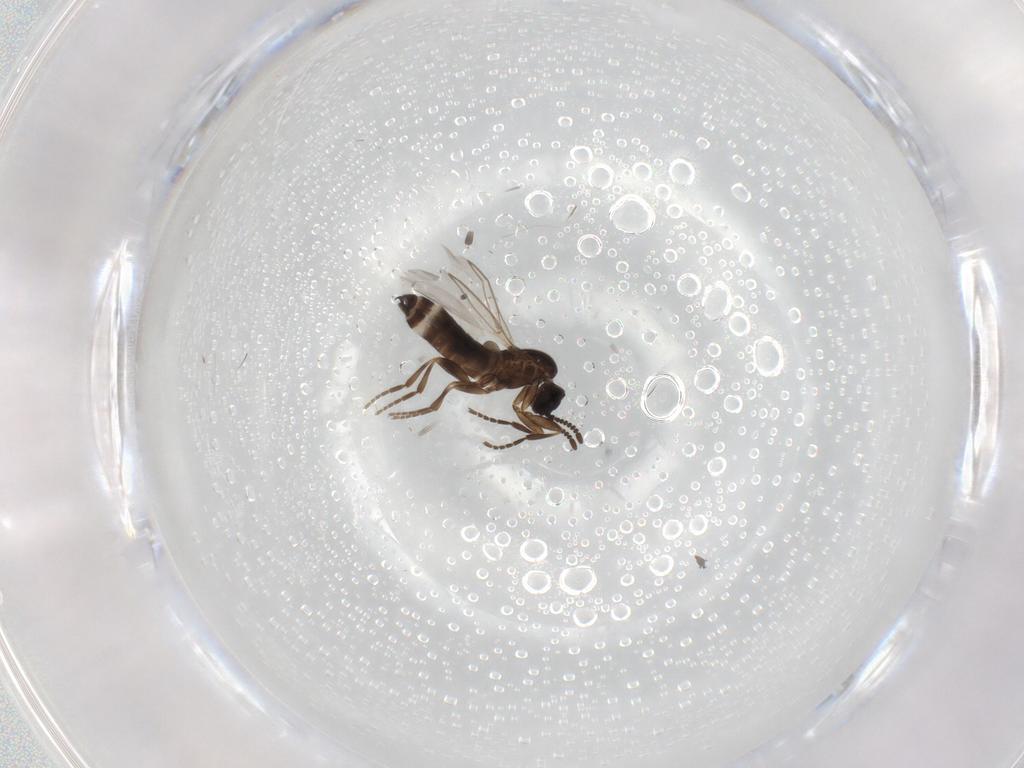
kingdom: Animalia
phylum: Arthropoda
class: Insecta
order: Diptera
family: Scatopsidae
